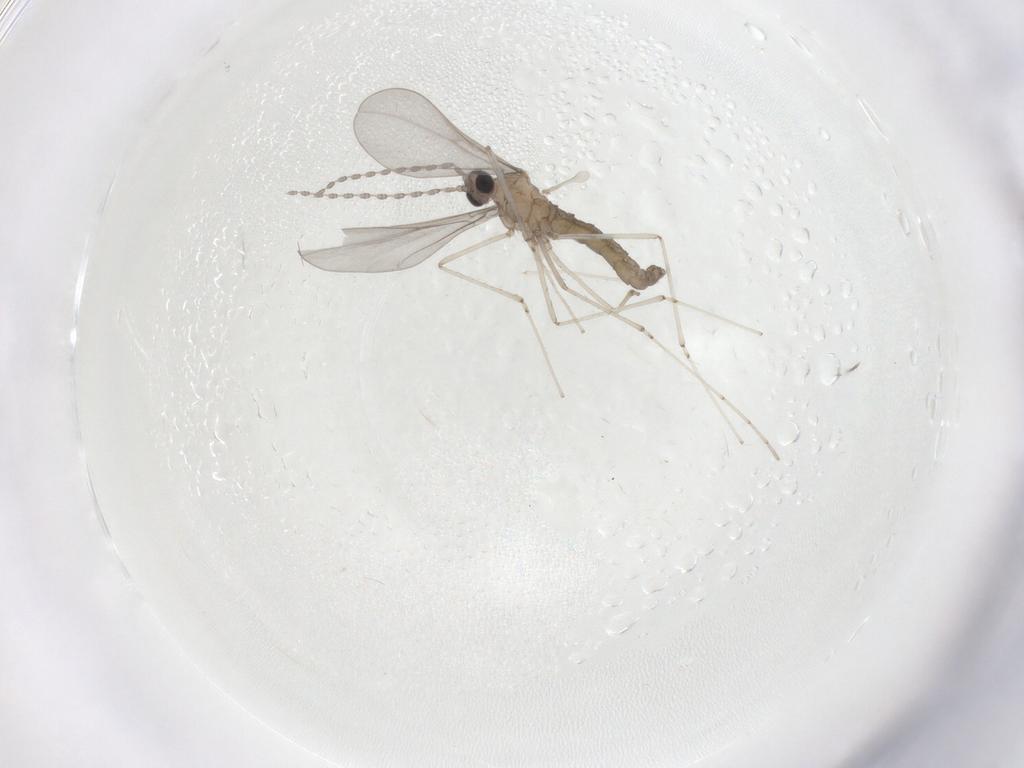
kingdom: Animalia
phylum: Arthropoda
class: Insecta
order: Diptera
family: Cecidomyiidae
